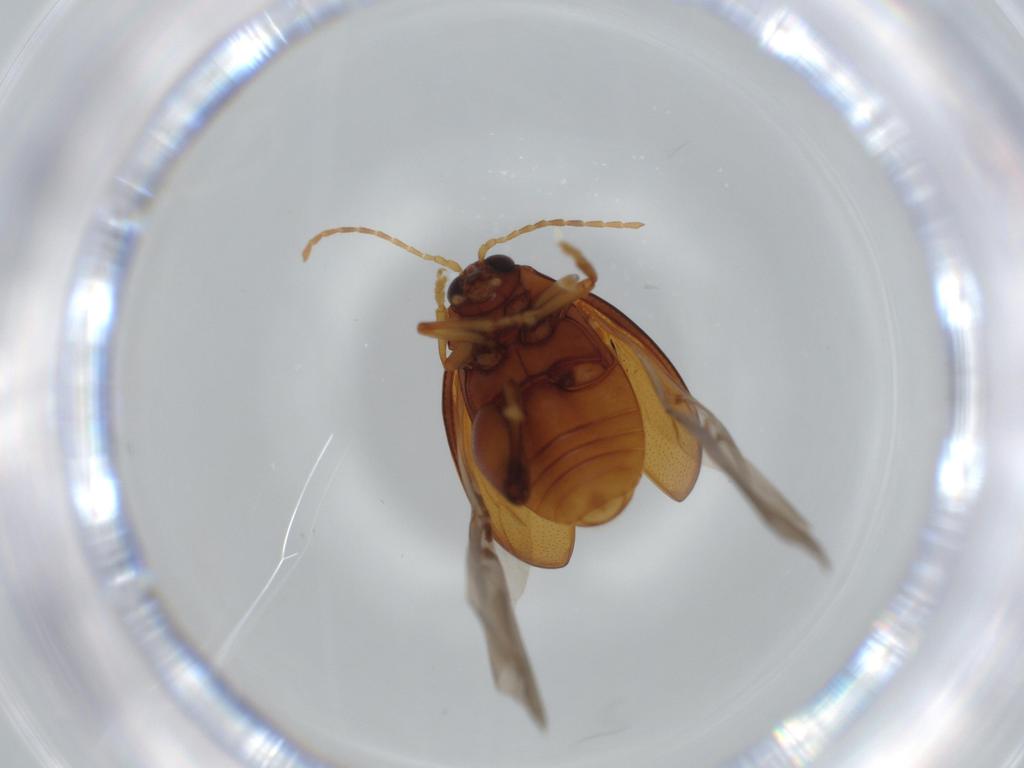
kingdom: Animalia
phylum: Arthropoda
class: Insecta
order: Coleoptera
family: Chrysomelidae
